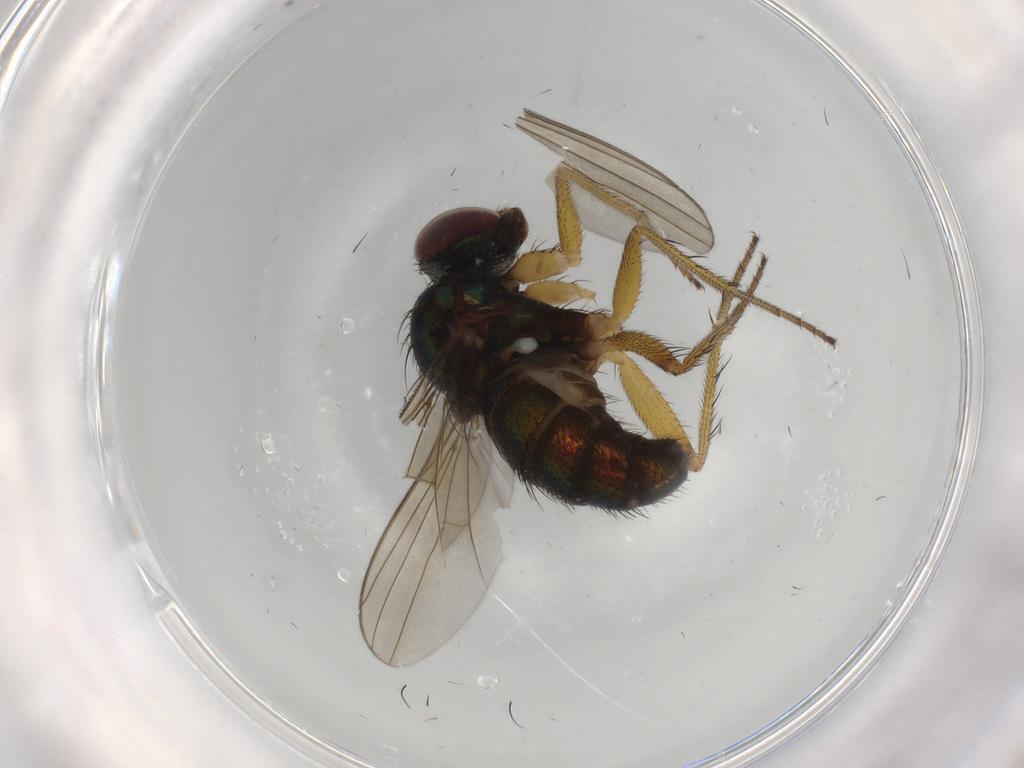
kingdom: Animalia
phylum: Arthropoda
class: Insecta
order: Diptera
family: Dolichopodidae
